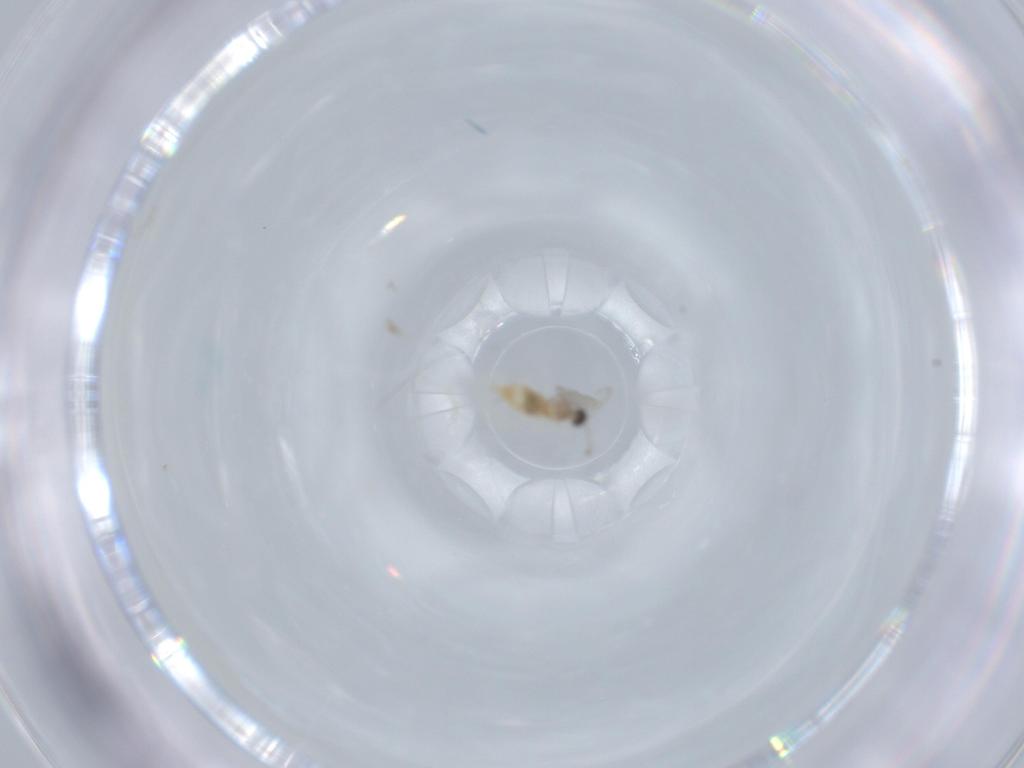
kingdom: Animalia
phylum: Arthropoda
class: Insecta
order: Diptera
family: Cecidomyiidae
